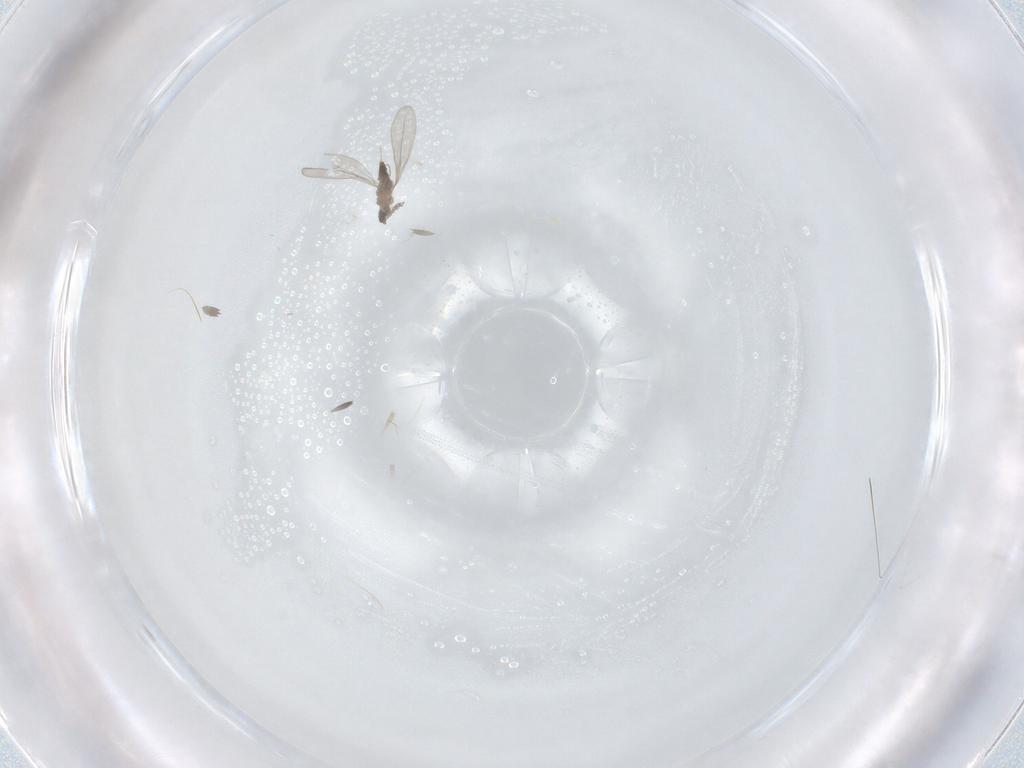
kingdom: Animalia
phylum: Arthropoda
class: Insecta
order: Diptera
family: Cecidomyiidae
